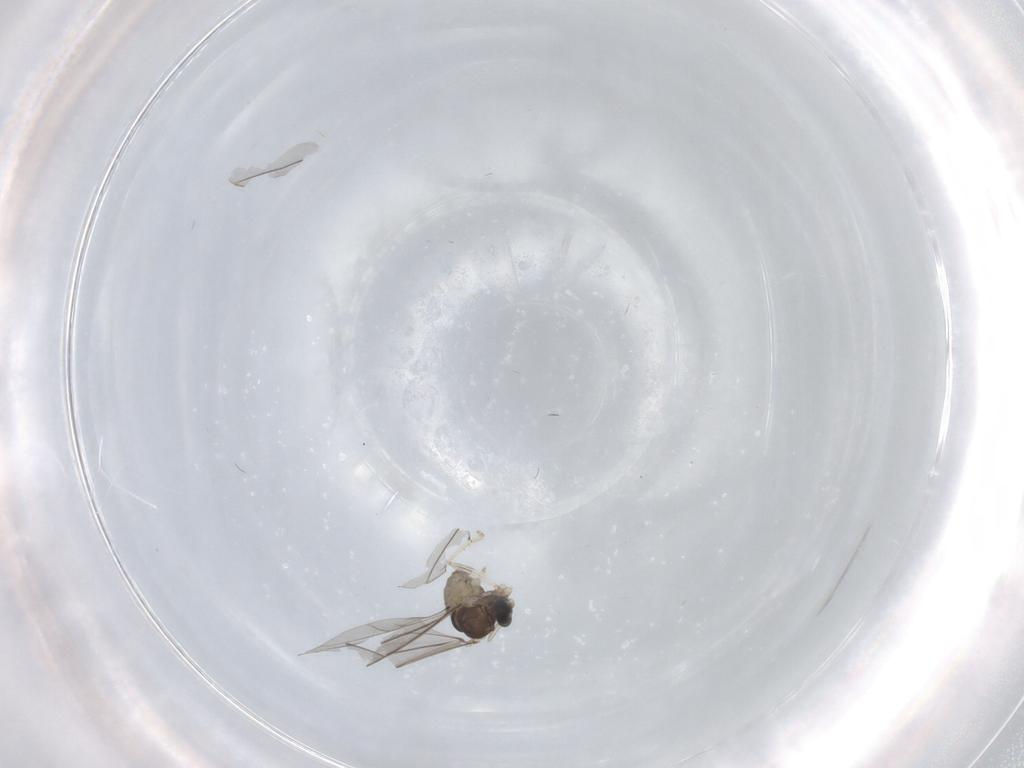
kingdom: Animalia
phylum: Arthropoda
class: Insecta
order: Diptera
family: Cecidomyiidae
